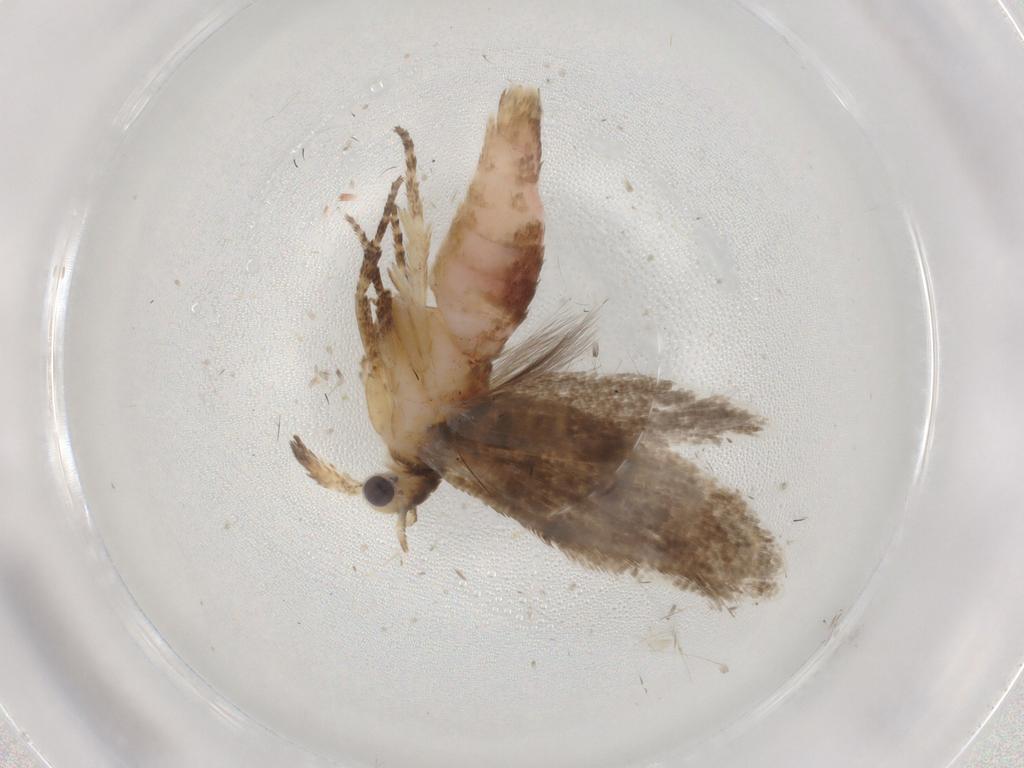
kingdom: Animalia
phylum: Arthropoda
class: Insecta
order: Lepidoptera
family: Plutellidae
